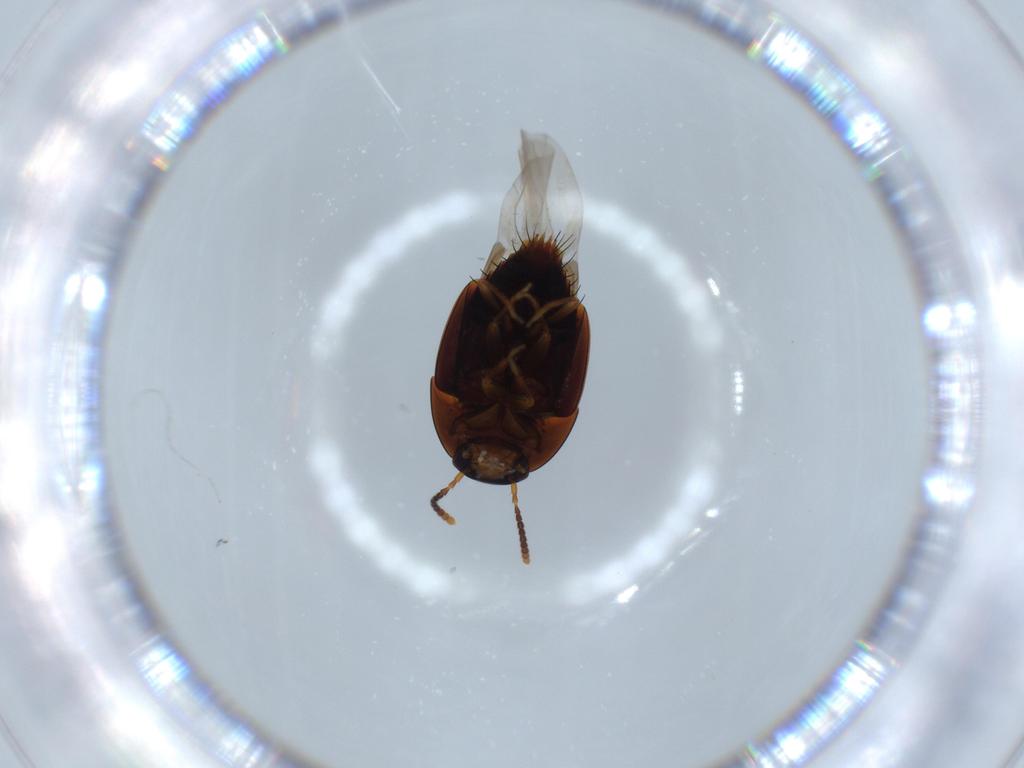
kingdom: Animalia
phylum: Arthropoda
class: Insecta
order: Coleoptera
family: Staphylinidae
